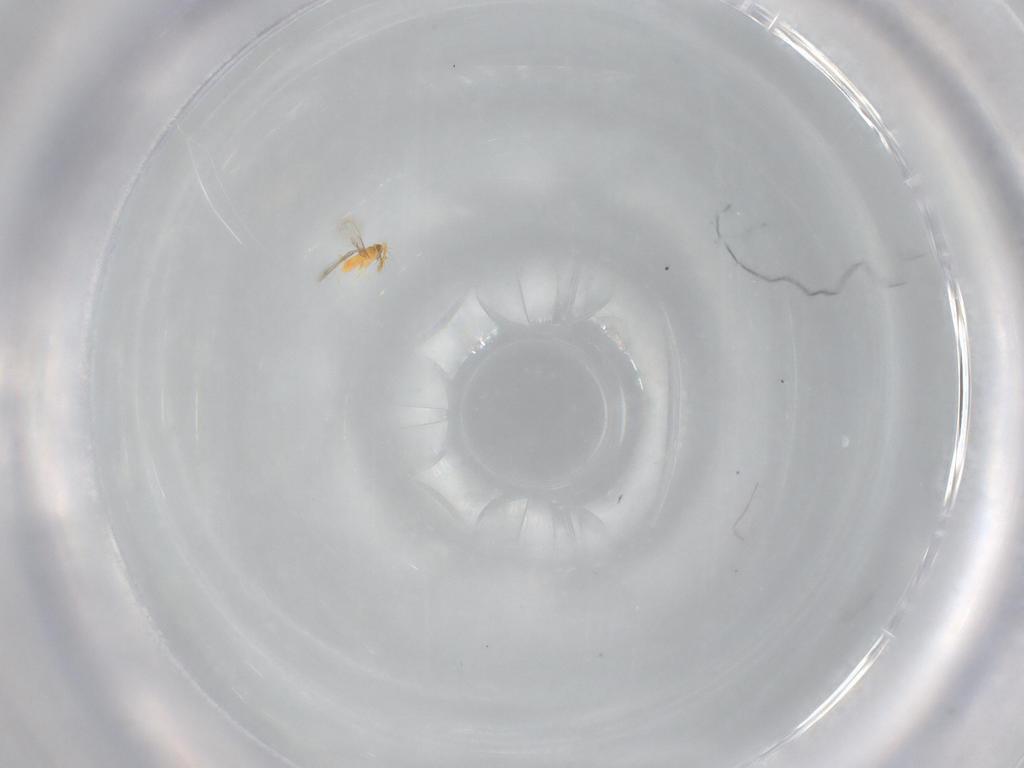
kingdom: Animalia
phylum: Arthropoda
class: Insecta
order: Hymenoptera
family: Aphelinidae
